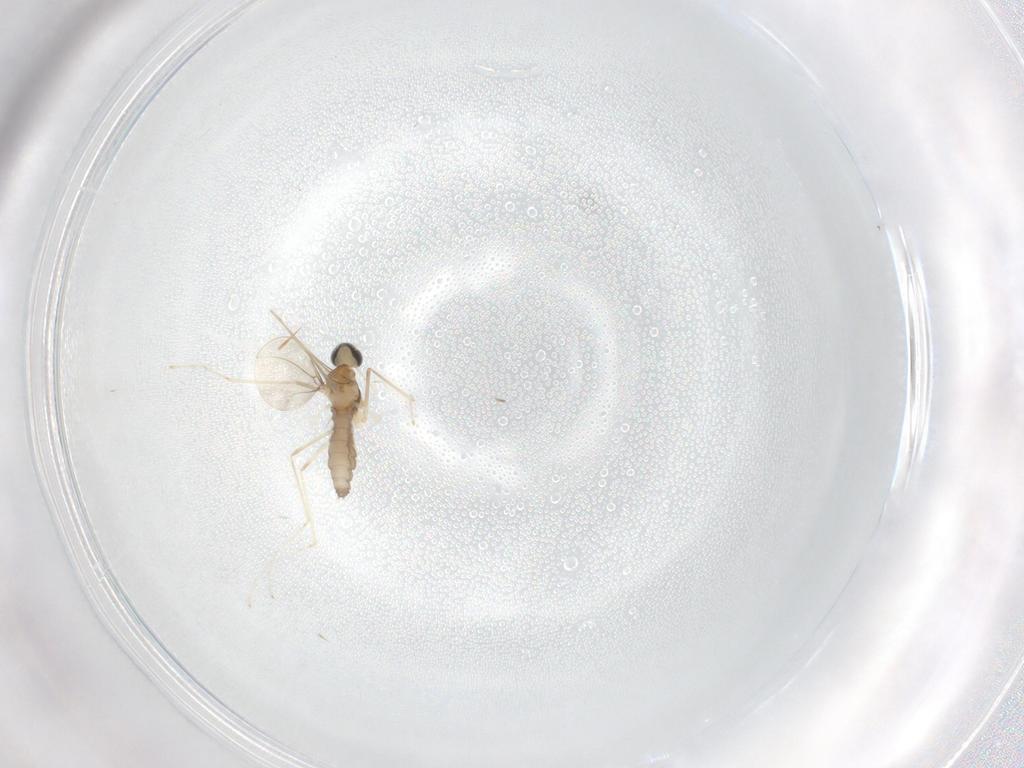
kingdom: Animalia
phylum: Arthropoda
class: Insecta
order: Diptera
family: Cecidomyiidae
